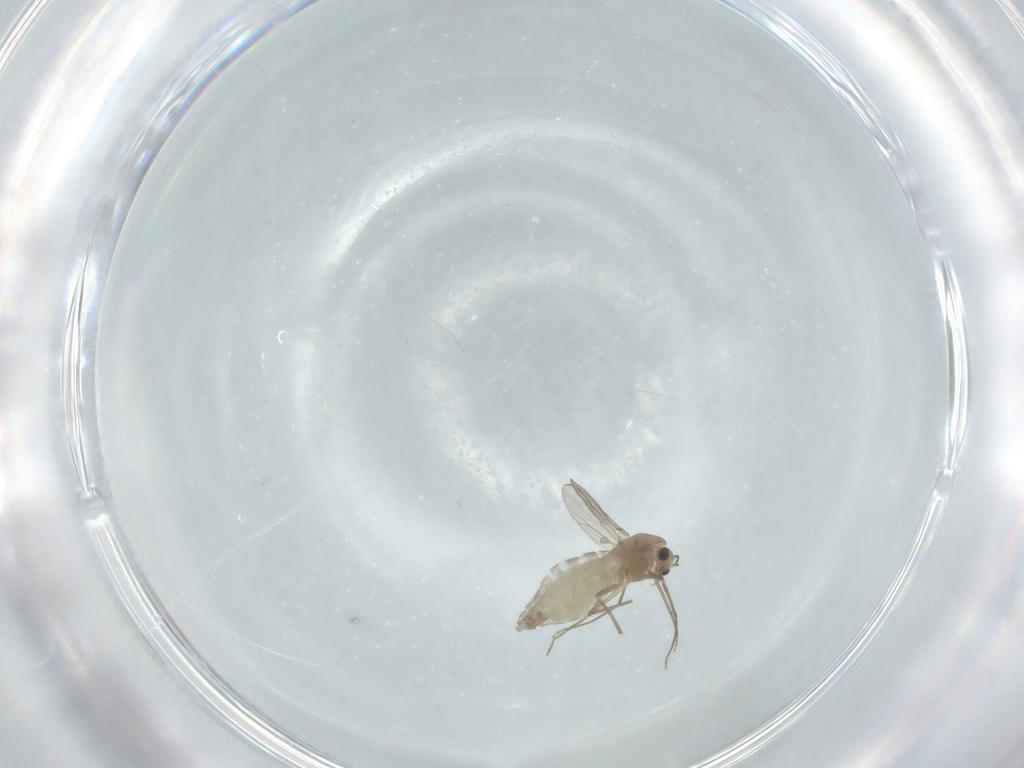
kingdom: Animalia
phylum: Arthropoda
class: Insecta
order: Diptera
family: Chironomidae
